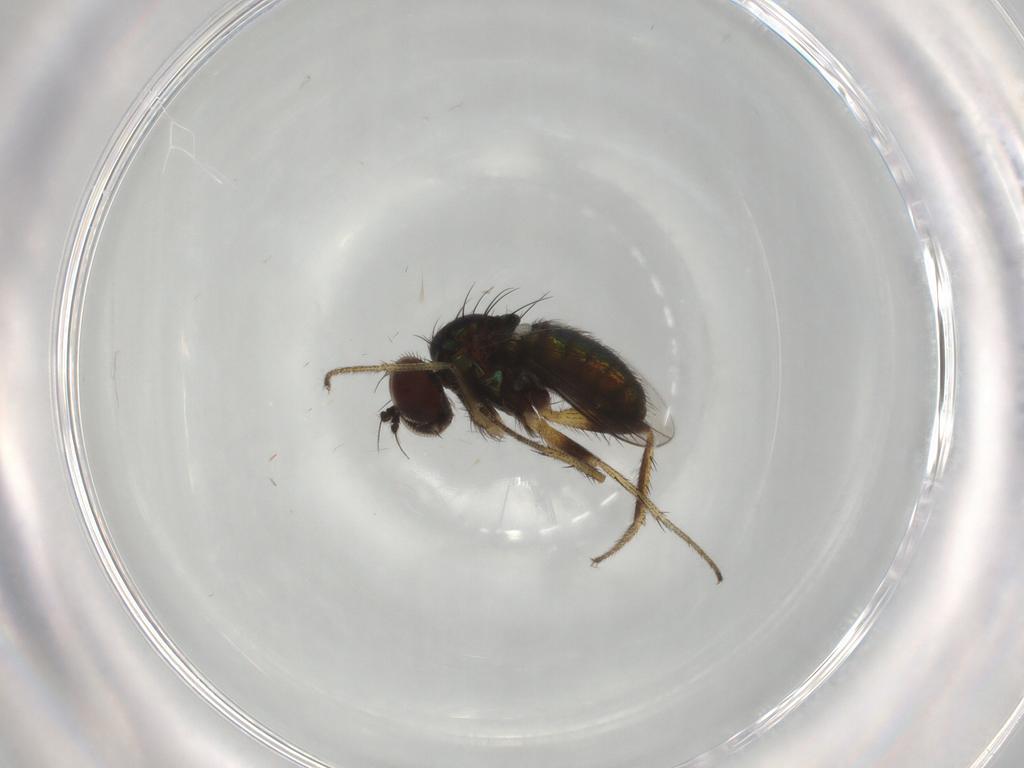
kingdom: Animalia
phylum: Arthropoda
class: Insecta
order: Diptera
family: Dolichopodidae
